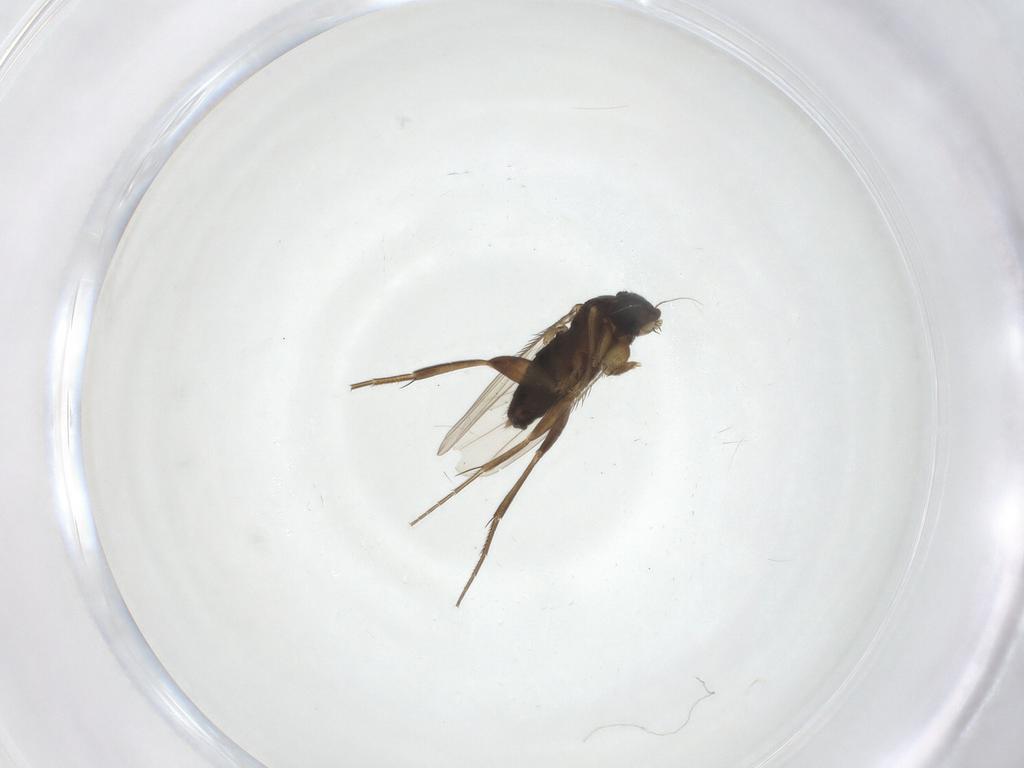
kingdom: Animalia
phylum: Arthropoda
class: Insecta
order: Diptera
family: Phoridae
